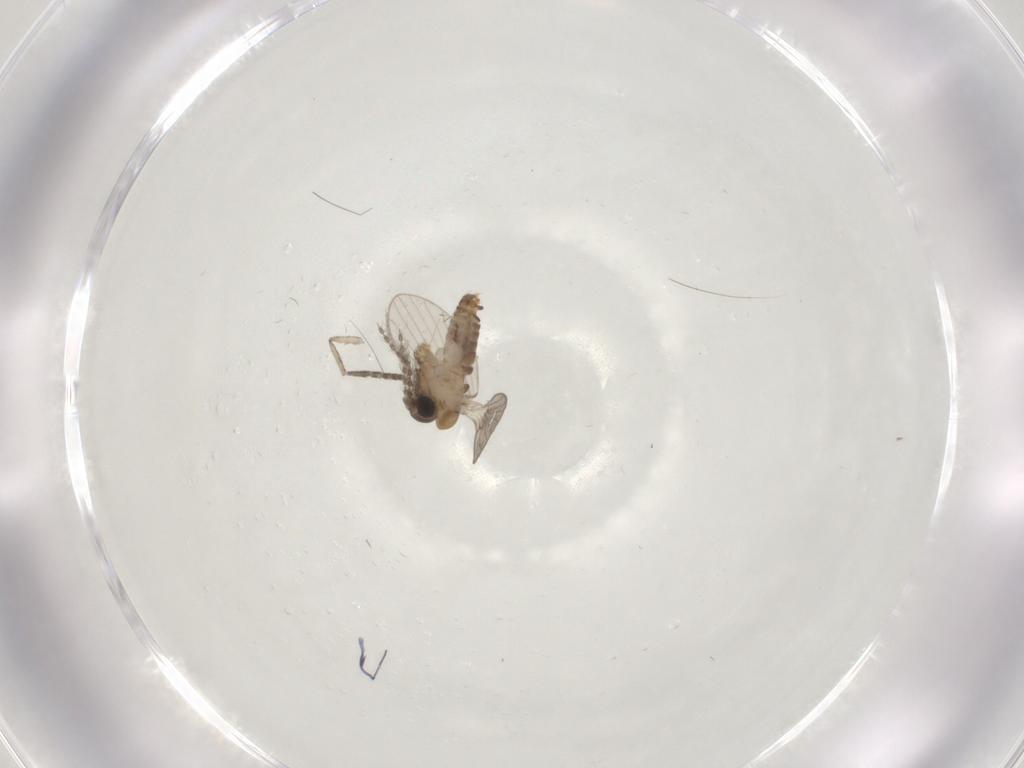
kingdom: Animalia
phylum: Arthropoda
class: Insecta
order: Diptera
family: Psychodidae
